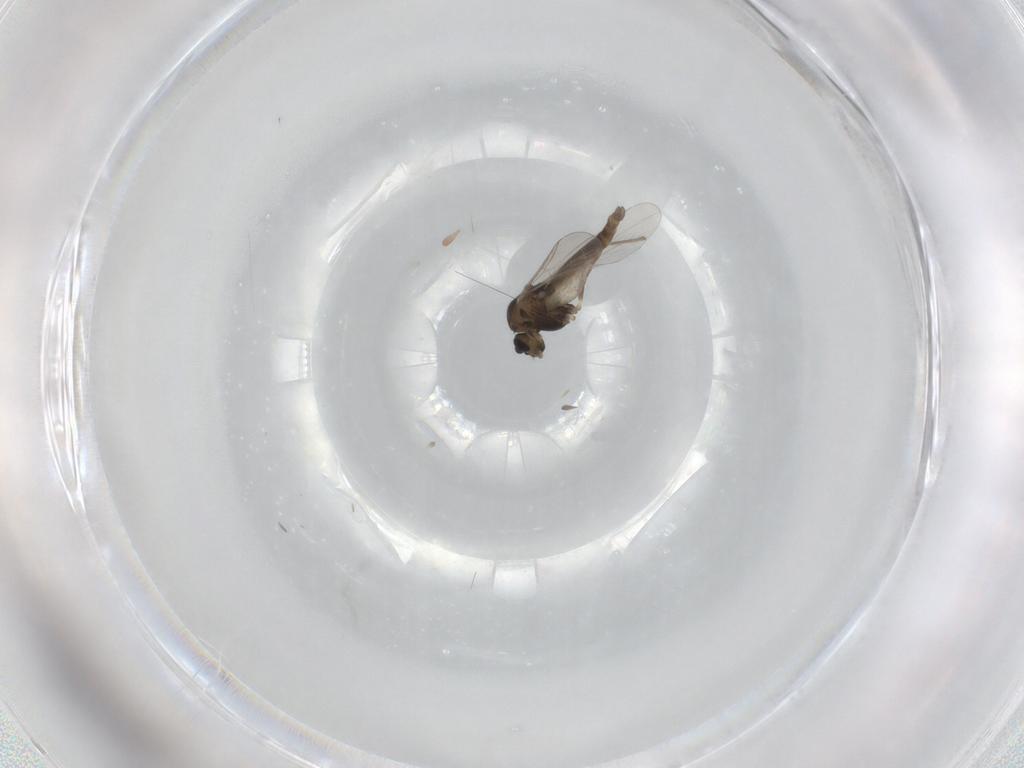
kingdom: Animalia
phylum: Arthropoda
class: Insecta
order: Diptera
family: Chironomidae
